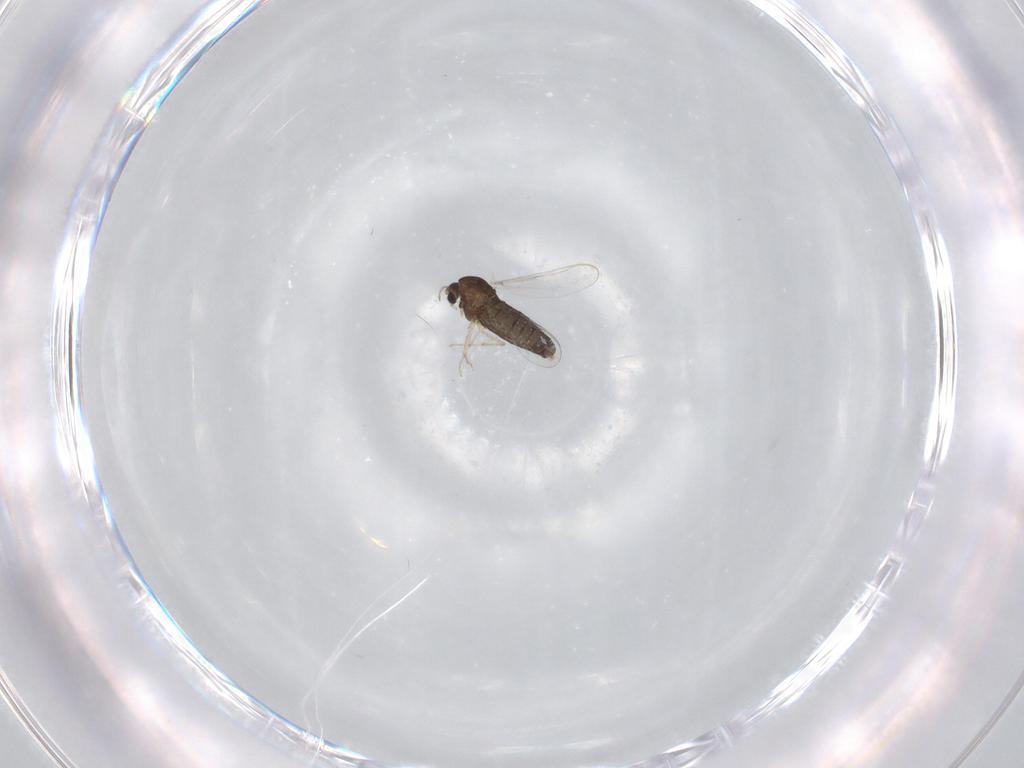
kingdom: Animalia
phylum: Arthropoda
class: Insecta
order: Diptera
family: Chironomidae
